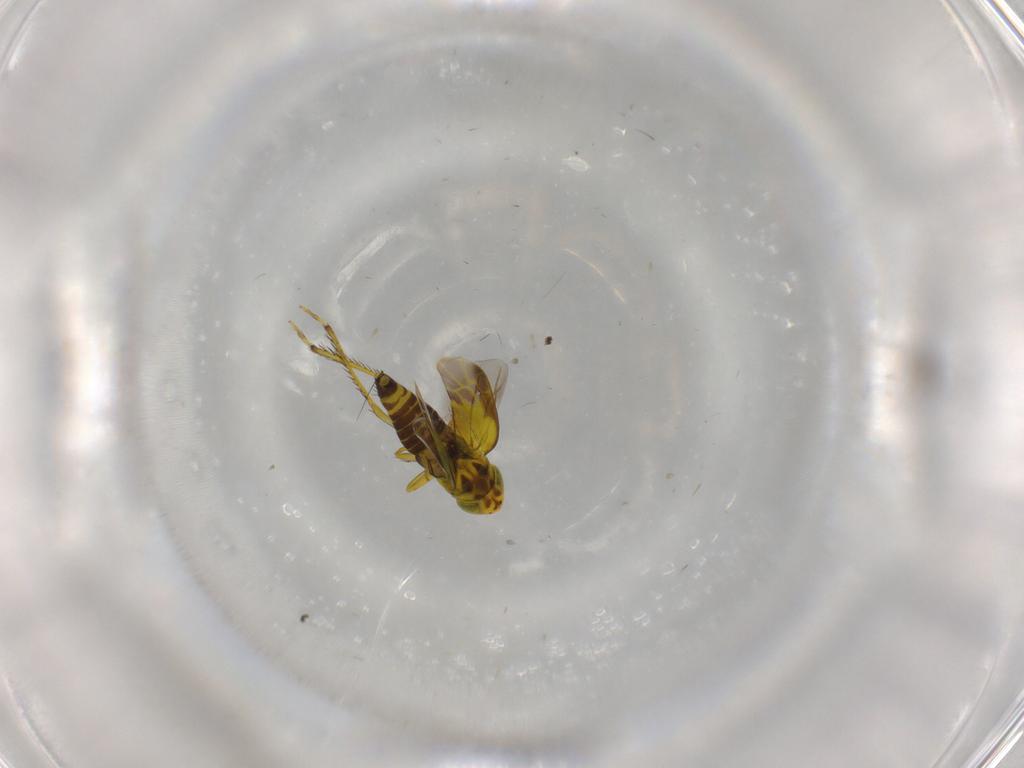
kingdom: Animalia
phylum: Arthropoda
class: Insecta
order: Hemiptera
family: Cicadellidae
